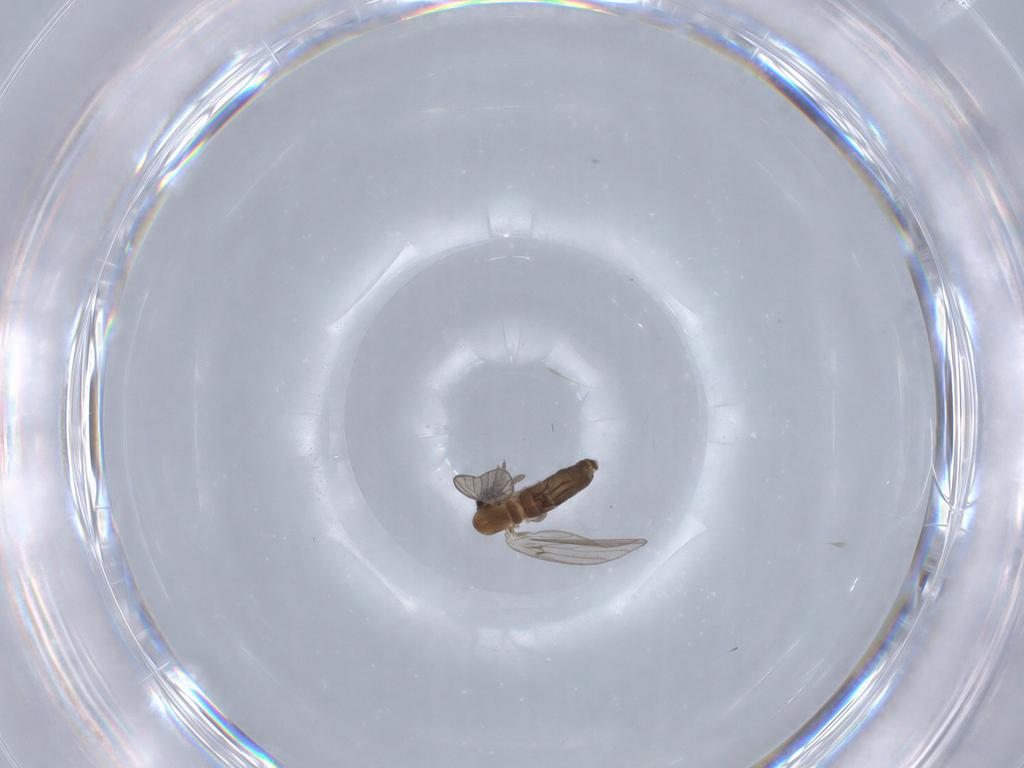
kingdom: Animalia
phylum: Arthropoda
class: Insecta
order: Diptera
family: Psychodidae
